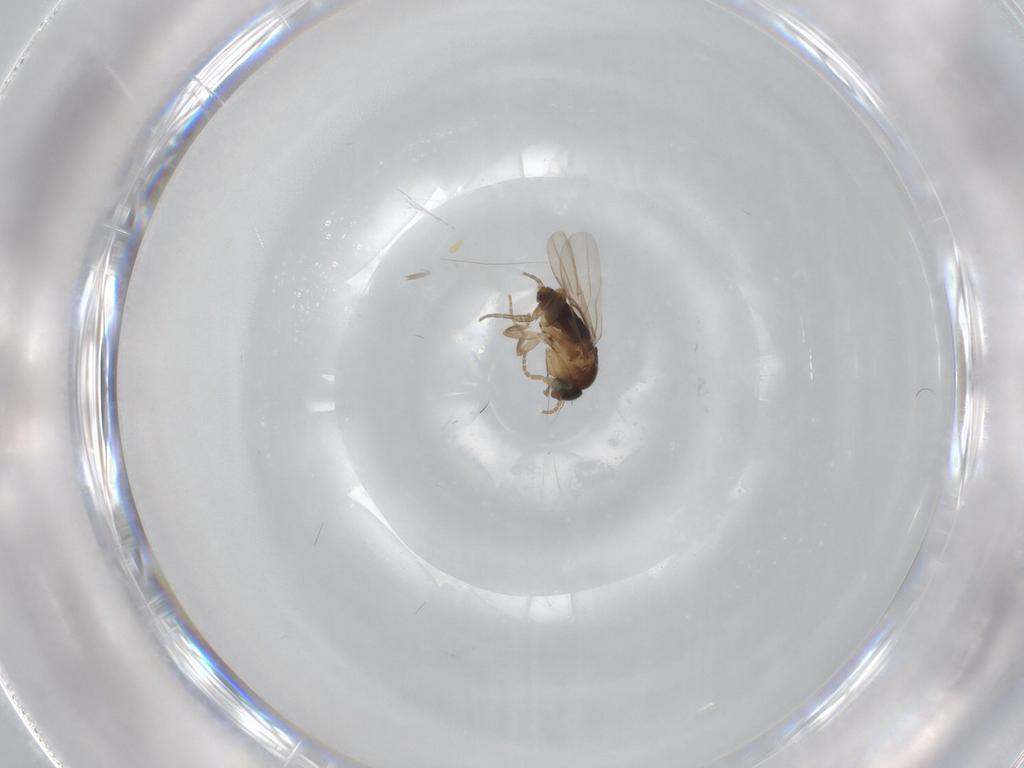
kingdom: Animalia
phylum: Arthropoda
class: Insecta
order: Diptera
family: Phoridae
